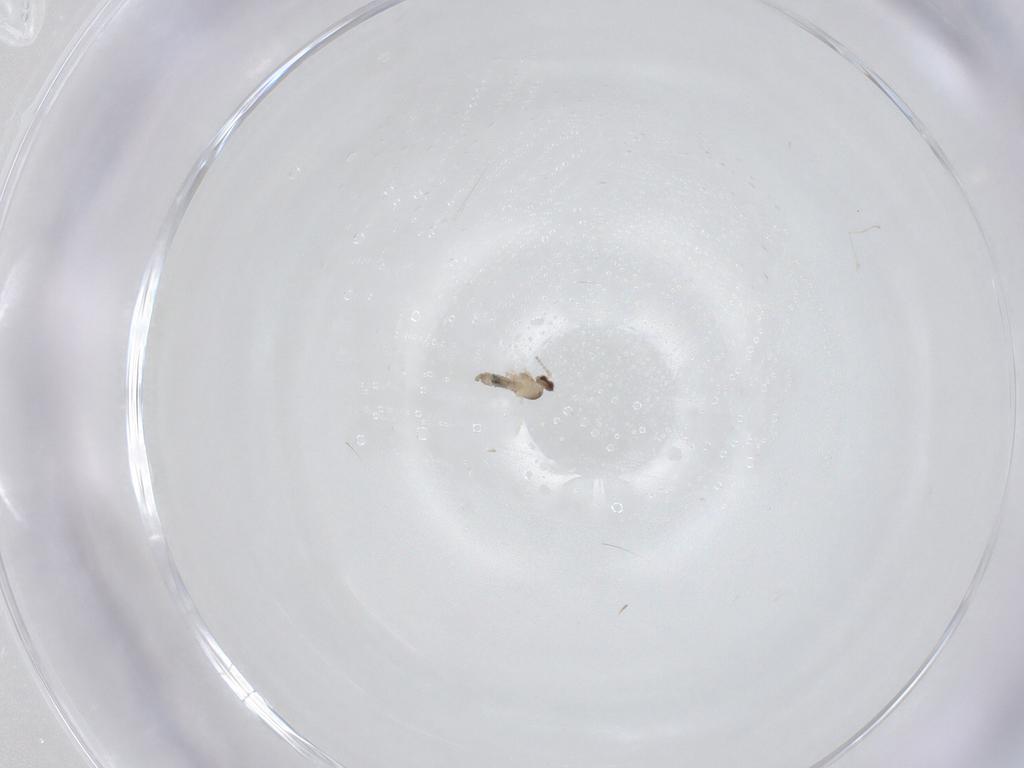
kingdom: Animalia
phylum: Arthropoda
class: Insecta
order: Diptera
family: Cecidomyiidae
